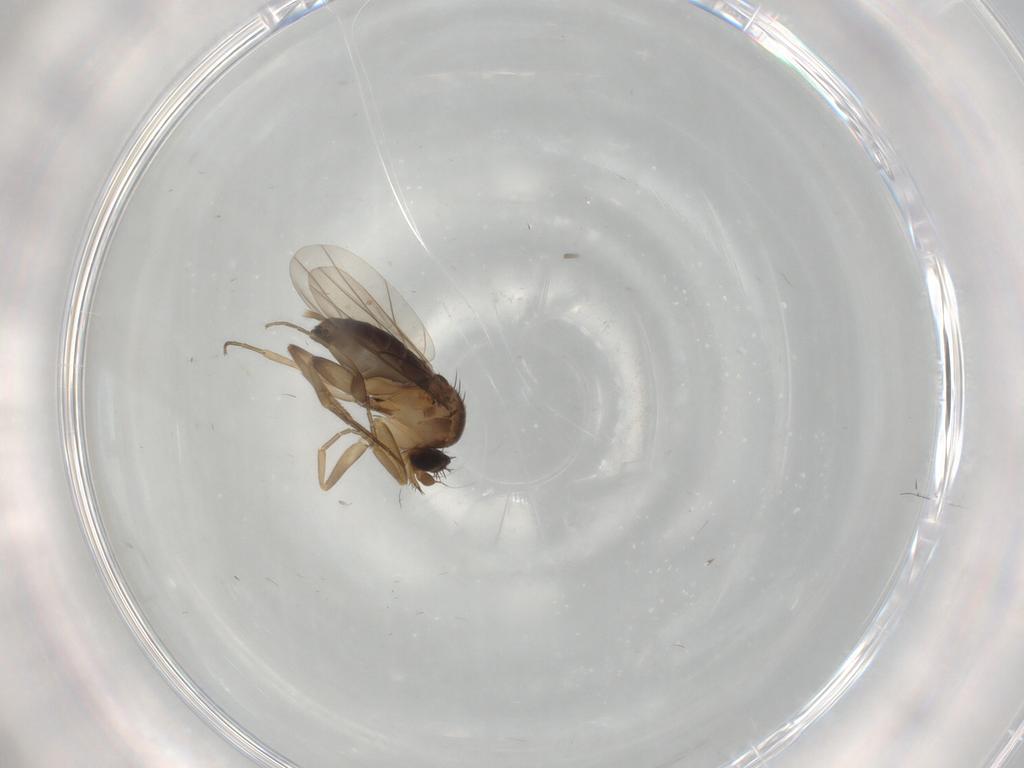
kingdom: Animalia
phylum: Arthropoda
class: Insecta
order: Diptera
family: Phoridae
